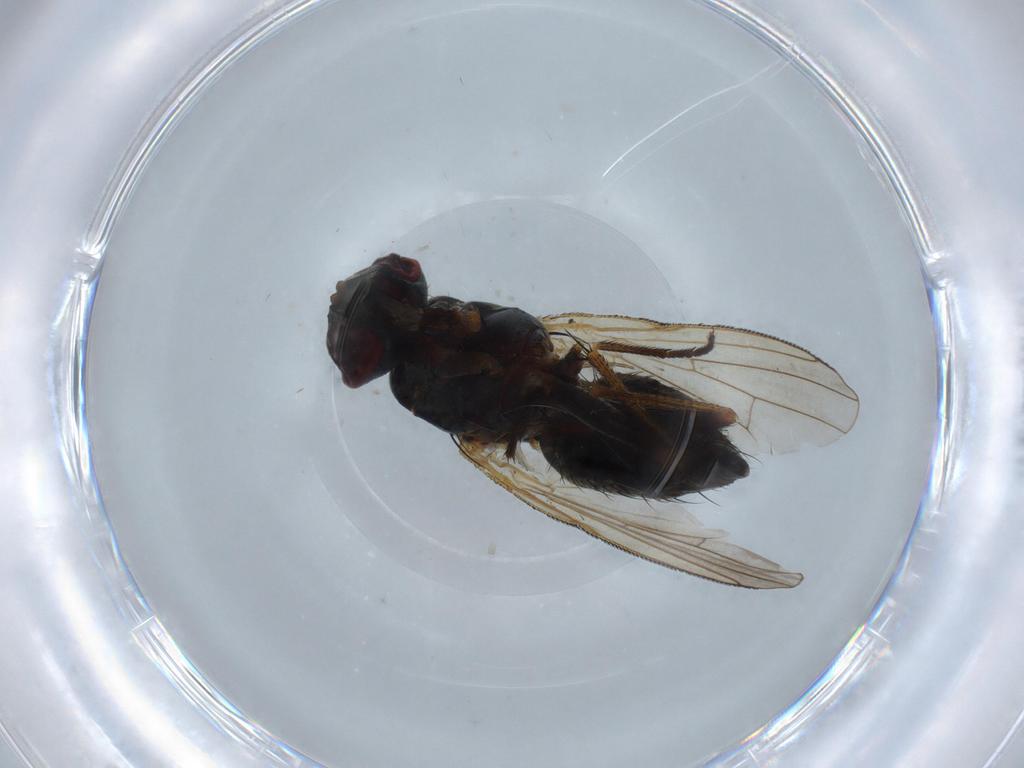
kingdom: Animalia
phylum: Arthropoda
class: Insecta
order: Diptera
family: Muscidae
